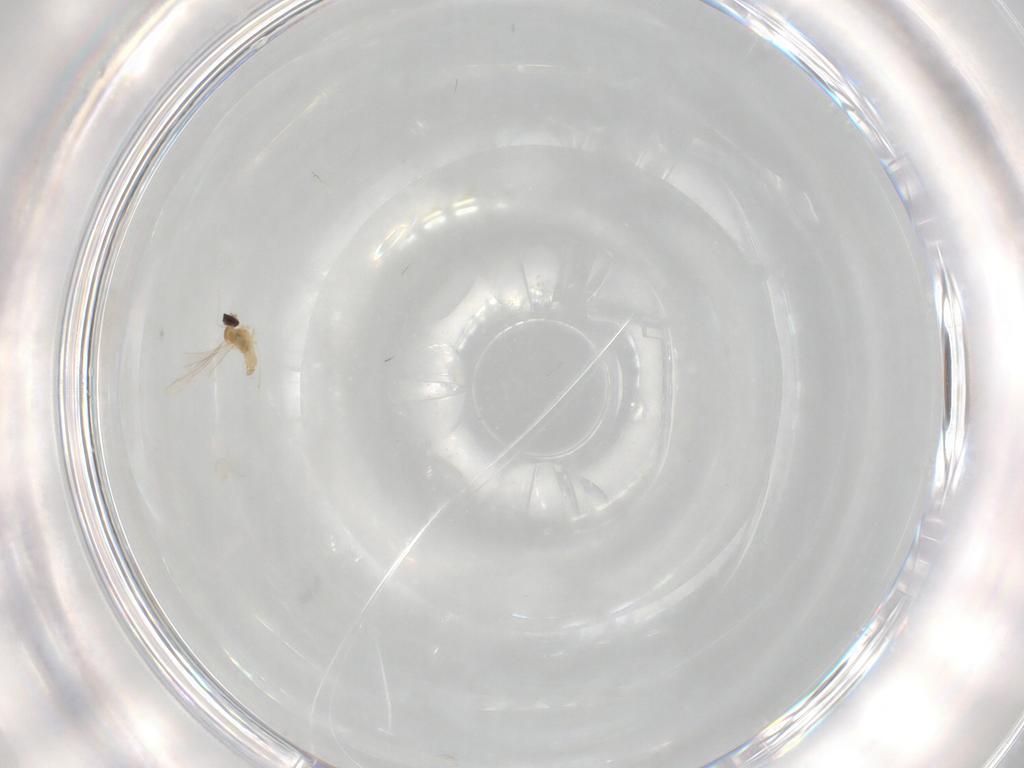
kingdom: Animalia
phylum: Arthropoda
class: Insecta
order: Diptera
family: Cecidomyiidae
